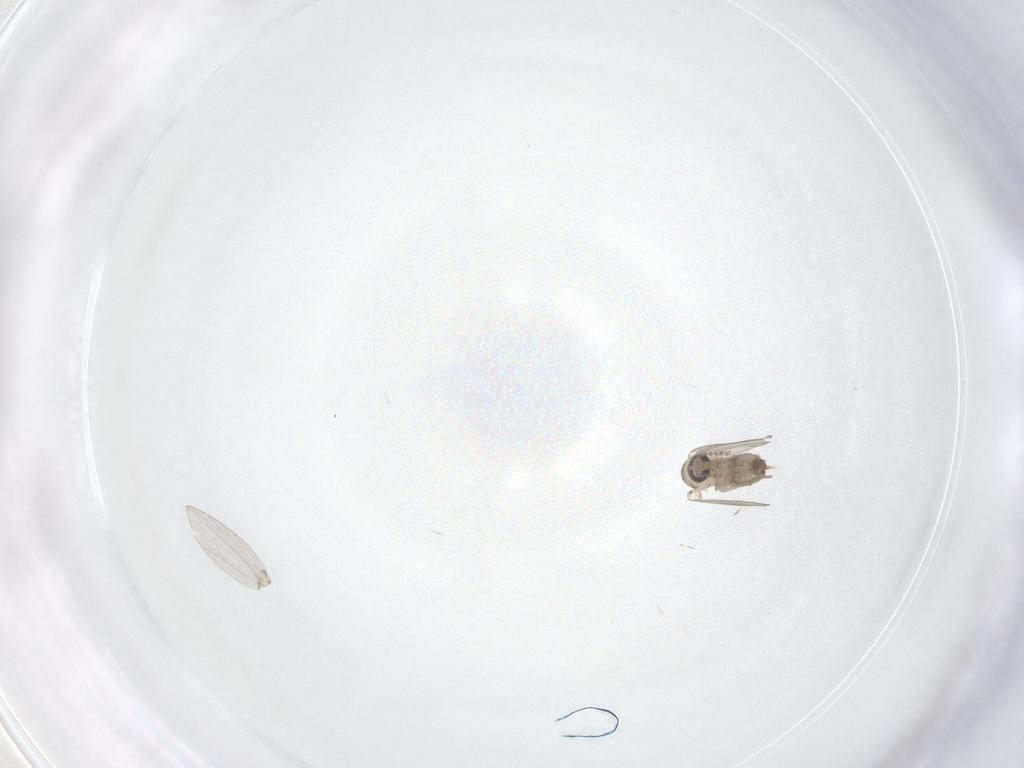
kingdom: Animalia
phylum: Arthropoda
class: Insecta
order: Diptera
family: Psychodidae
